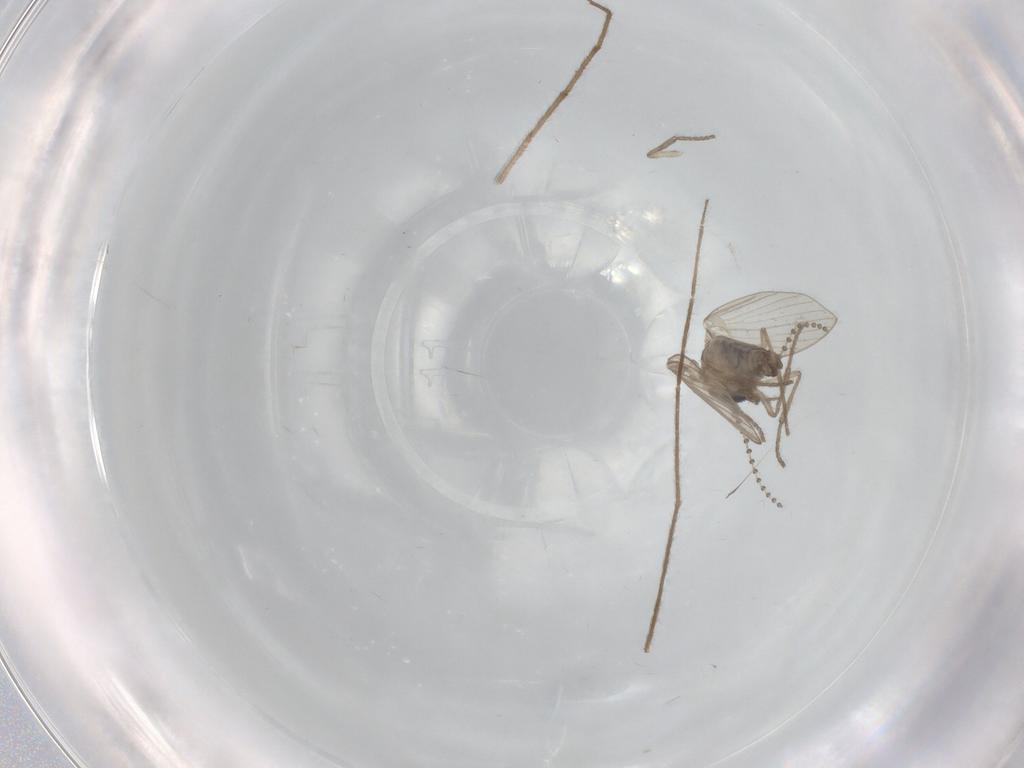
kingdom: Animalia
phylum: Arthropoda
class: Insecta
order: Diptera
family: Psychodidae
